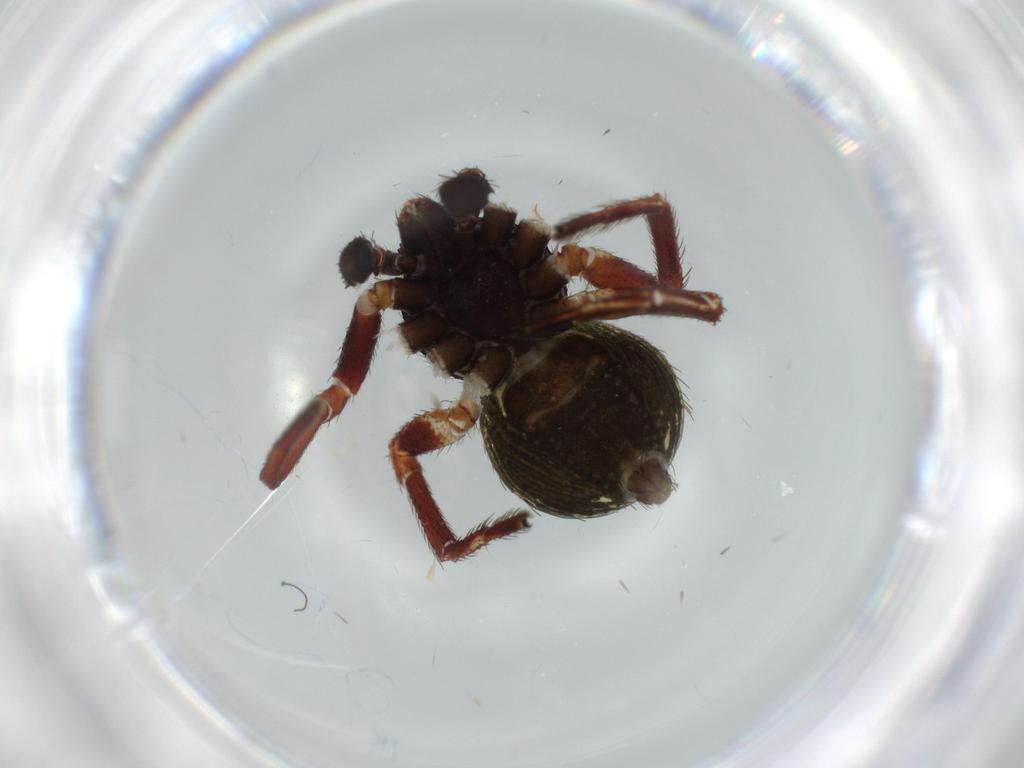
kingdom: Animalia
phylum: Arthropoda
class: Arachnida
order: Araneae
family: Thomisidae
